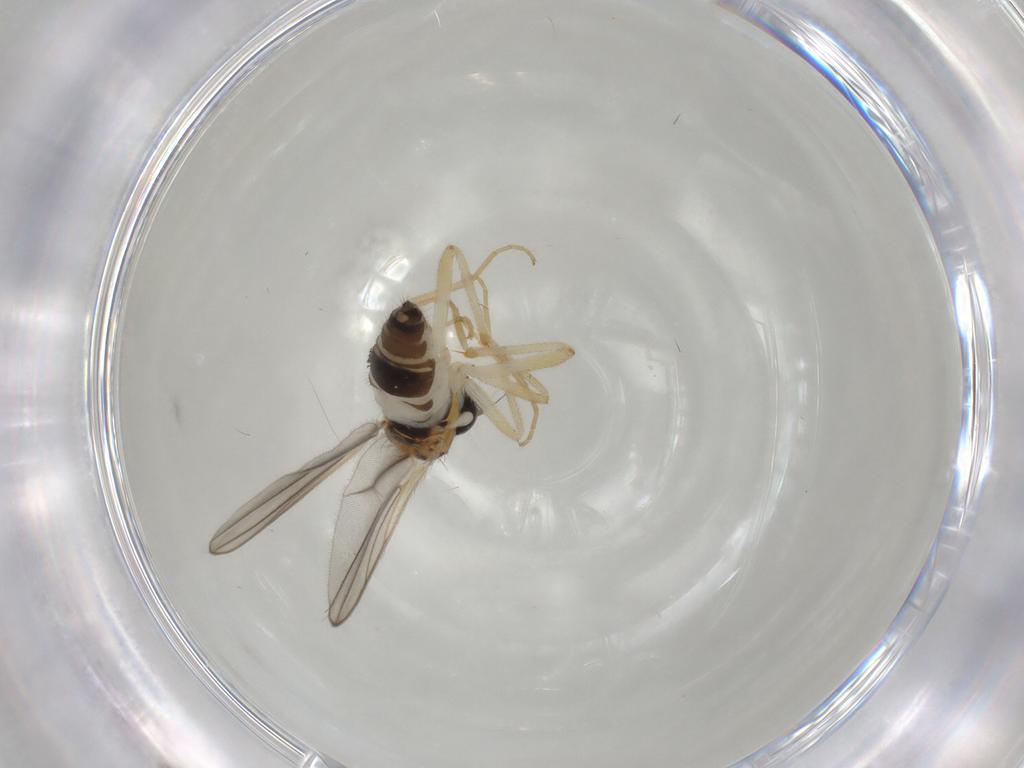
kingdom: Animalia
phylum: Arthropoda
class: Insecta
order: Diptera
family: Hybotidae
